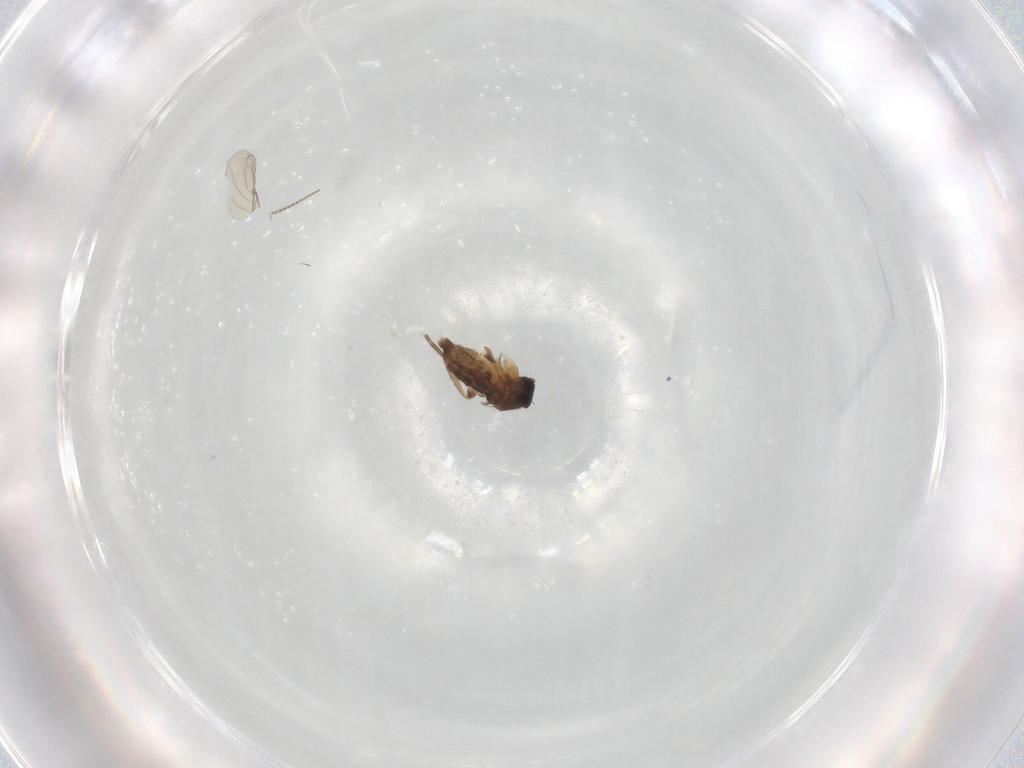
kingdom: Animalia
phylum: Arthropoda
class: Insecta
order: Diptera
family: Phoridae
